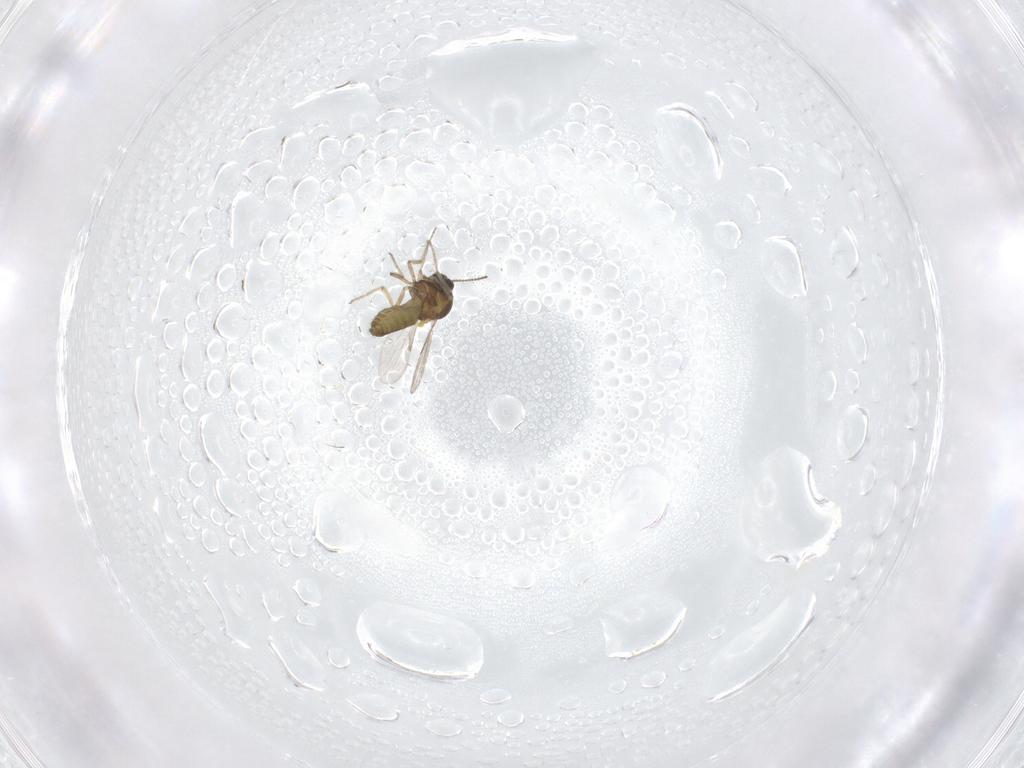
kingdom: Animalia
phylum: Arthropoda
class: Insecta
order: Diptera
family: Ceratopogonidae
